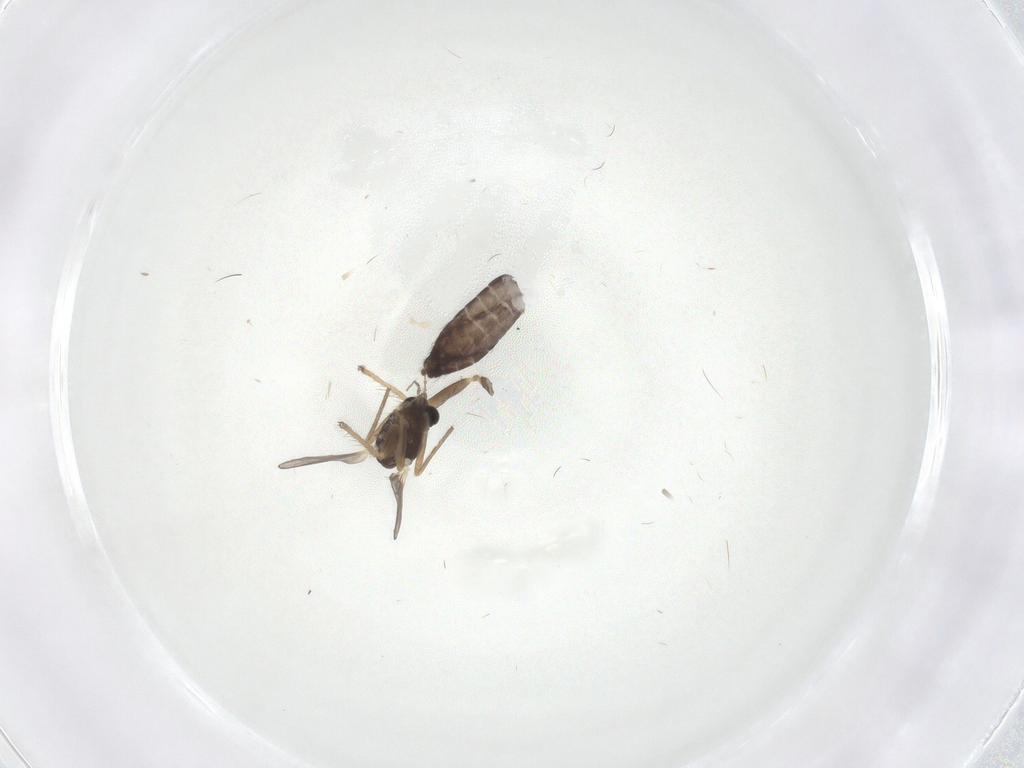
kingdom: Animalia
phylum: Arthropoda
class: Insecta
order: Diptera
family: Chironomidae
